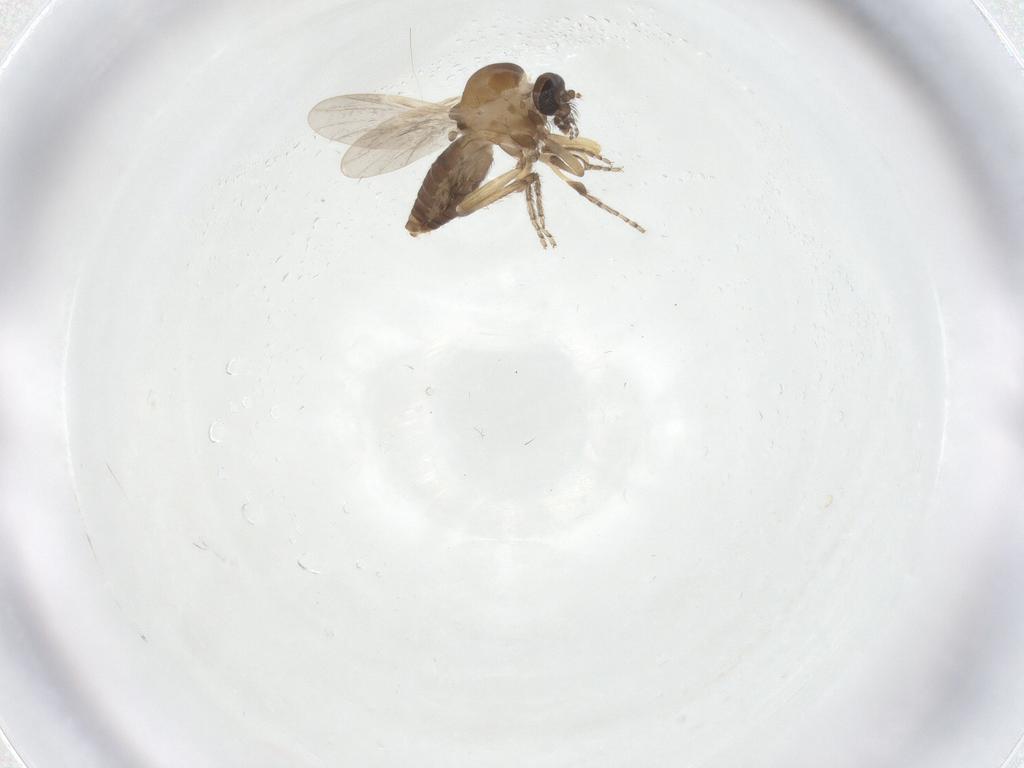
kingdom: Animalia
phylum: Arthropoda
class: Insecta
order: Diptera
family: Ceratopogonidae
